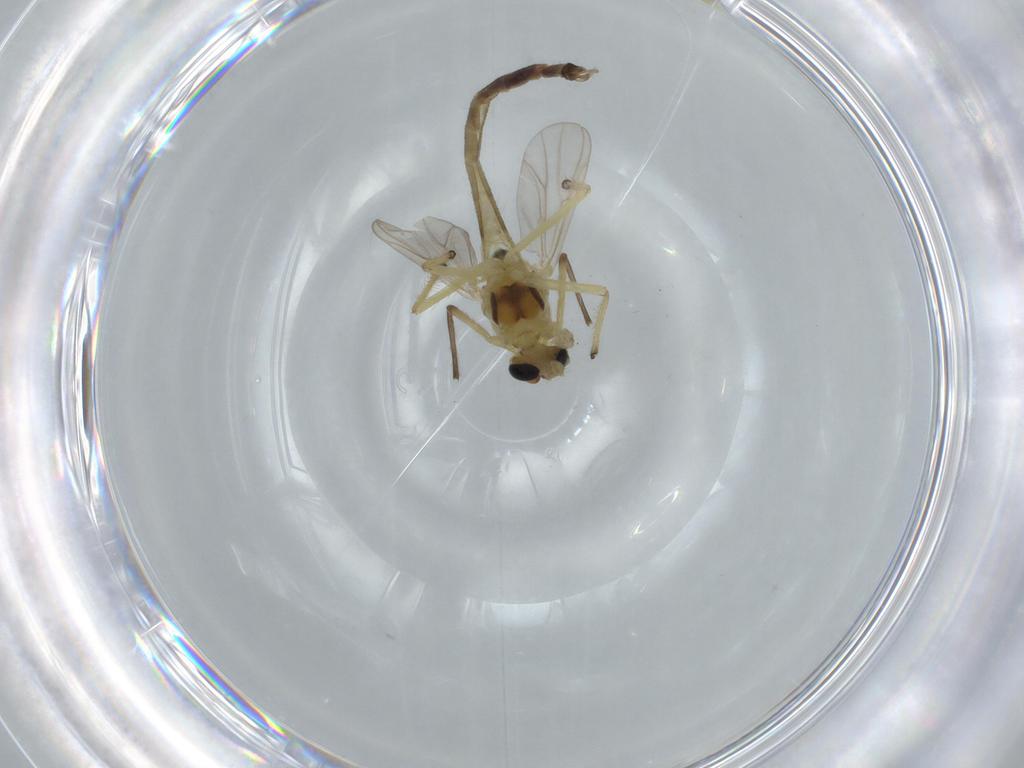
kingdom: Animalia
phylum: Arthropoda
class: Insecta
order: Diptera
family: Chironomidae
